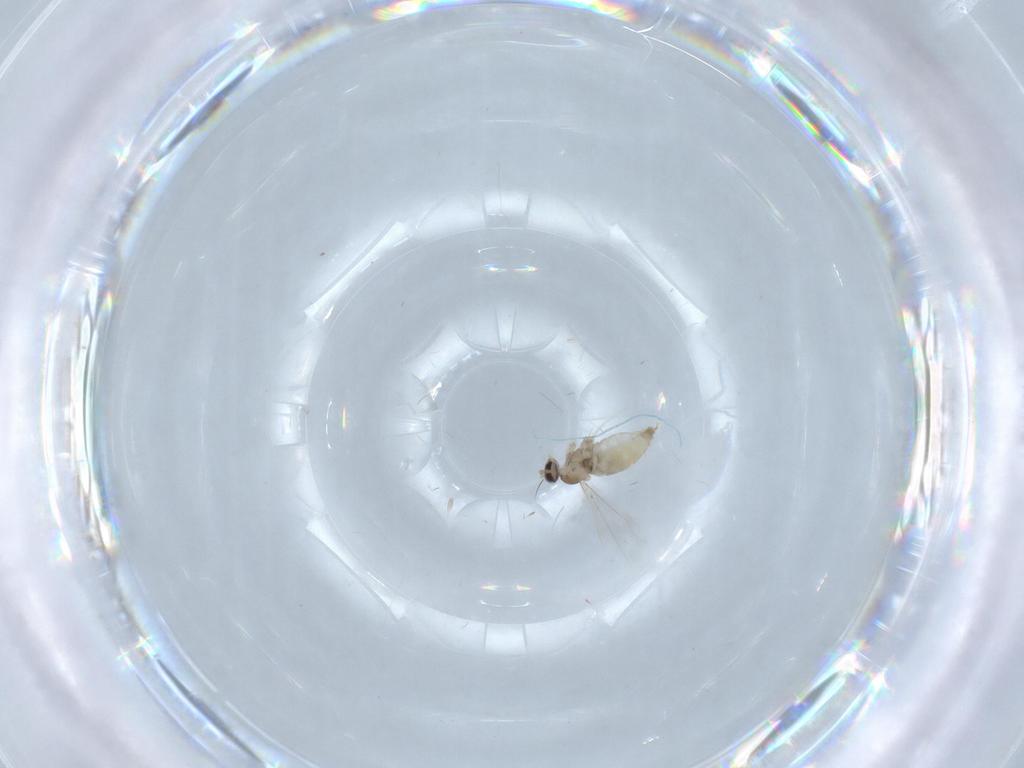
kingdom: Animalia
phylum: Arthropoda
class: Insecta
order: Diptera
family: Cecidomyiidae
